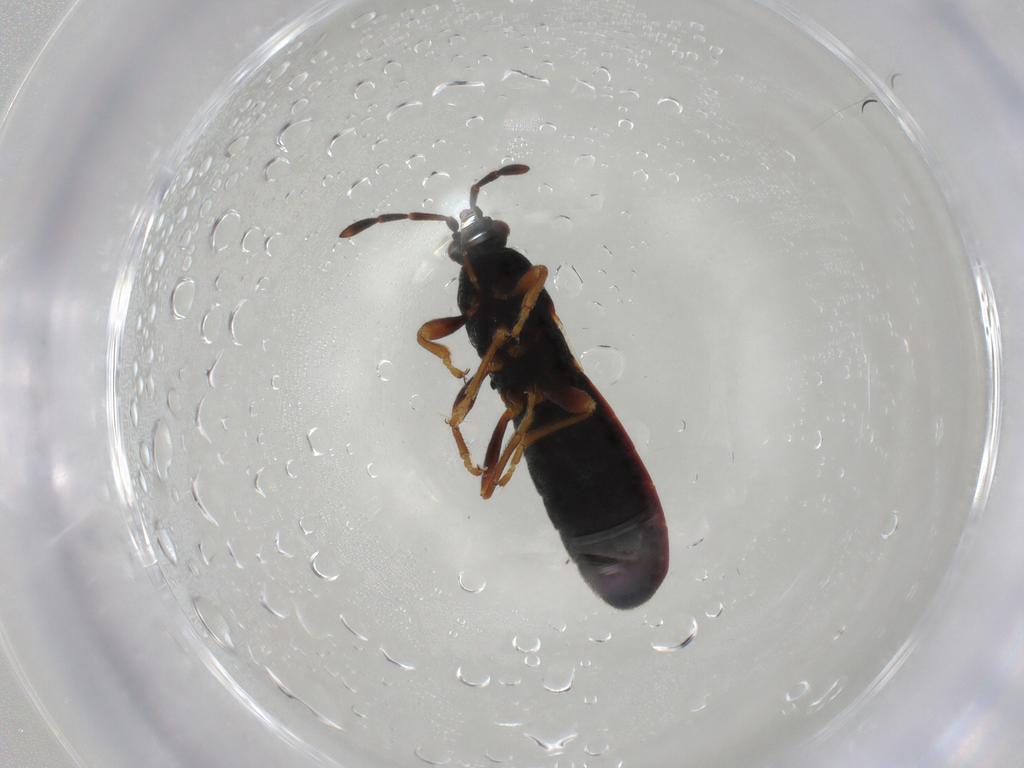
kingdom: Animalia
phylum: Arthropoda
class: Insecta
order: Hemiptera
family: Blissidae
